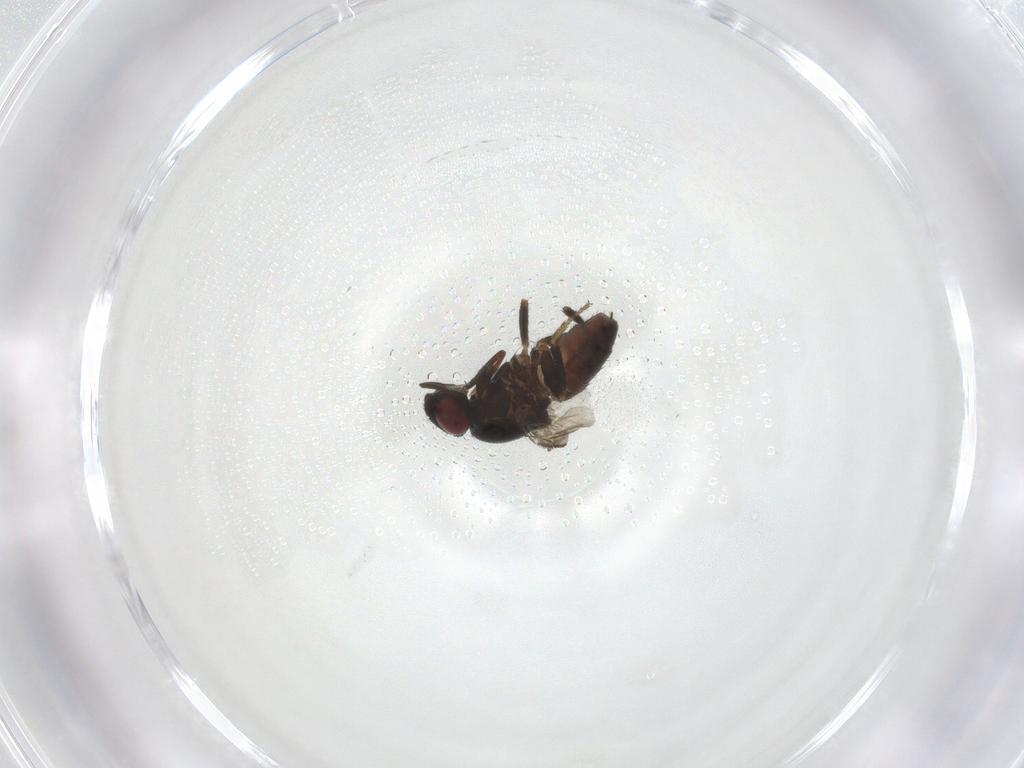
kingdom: Animalia
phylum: Arthropoda
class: Insecta
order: Diptera
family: Milichiidae
